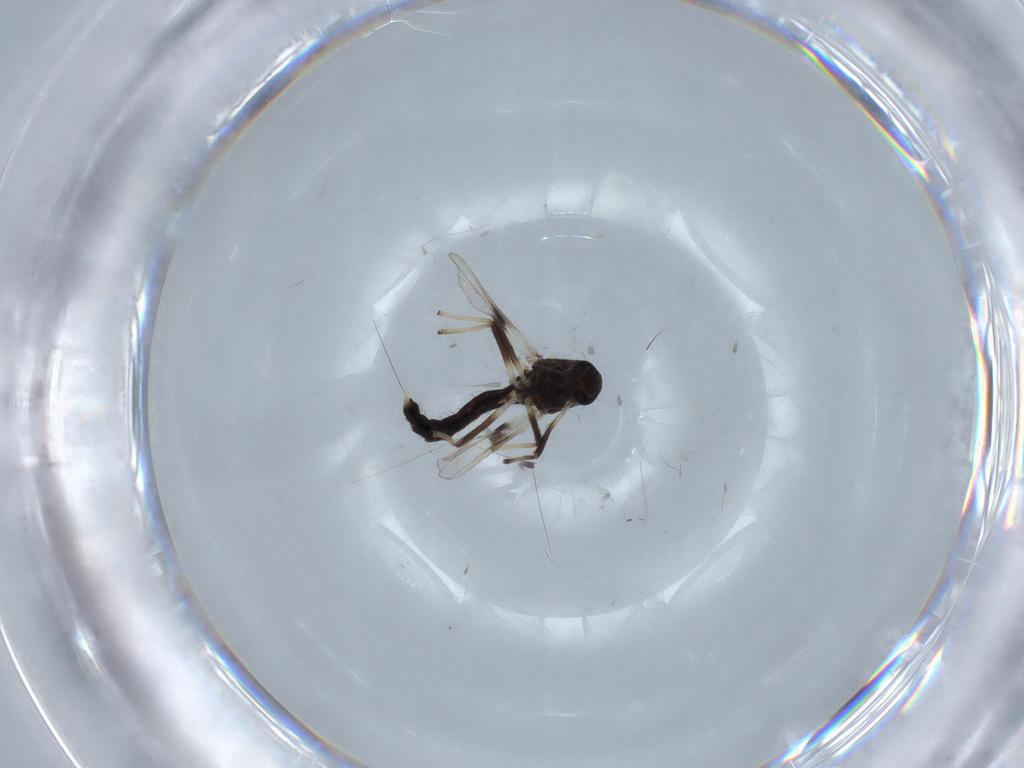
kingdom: Animalia
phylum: Arthropoda
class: Insecta
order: Diptera
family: Chironomidae
